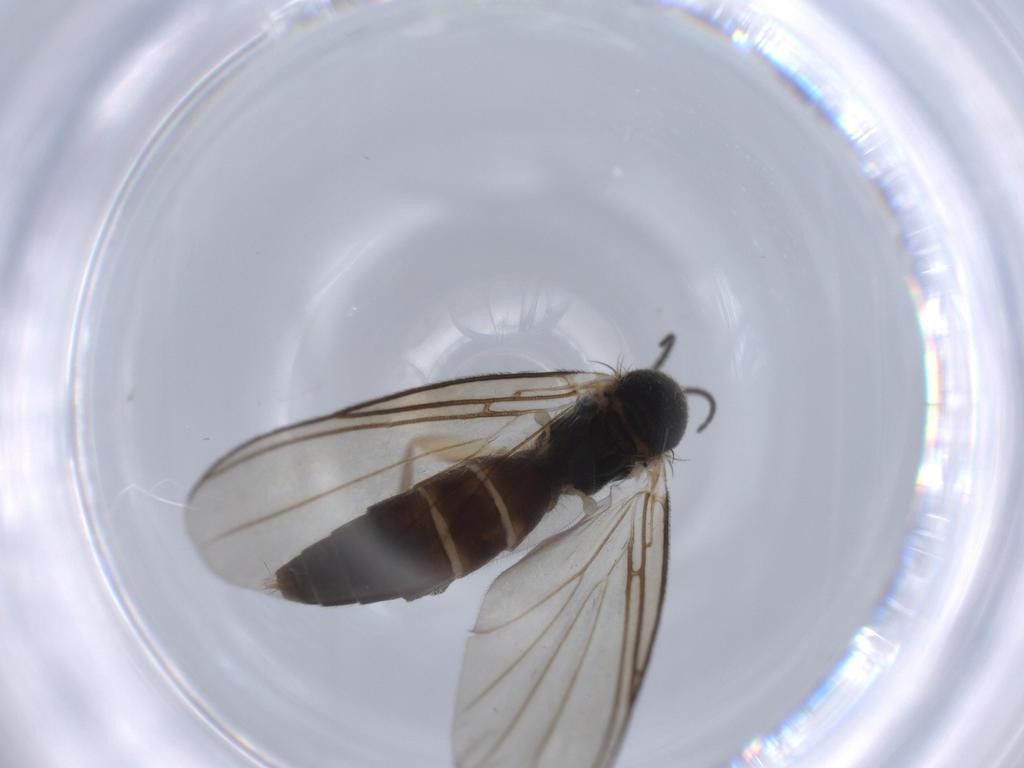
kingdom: Animalia
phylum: Arthropoda
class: Insecta
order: Diptera
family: Mycetophilidae
